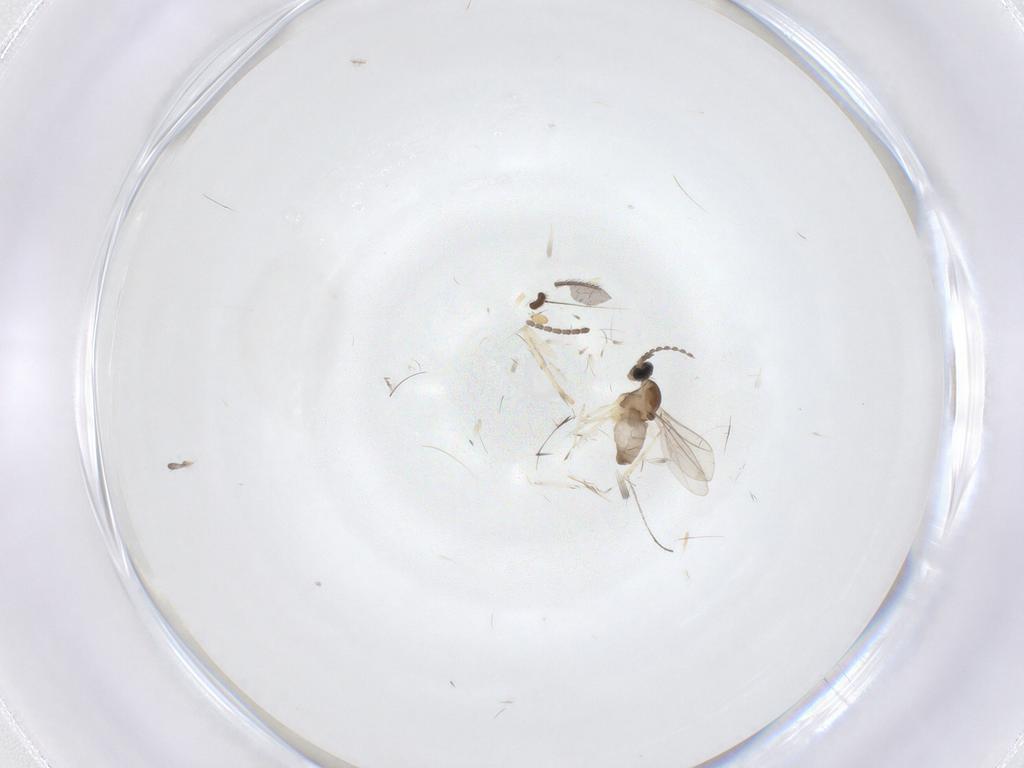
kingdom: Animalia
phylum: Arthropoda
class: Insecta
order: Diptera
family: Cecidomyiidae
